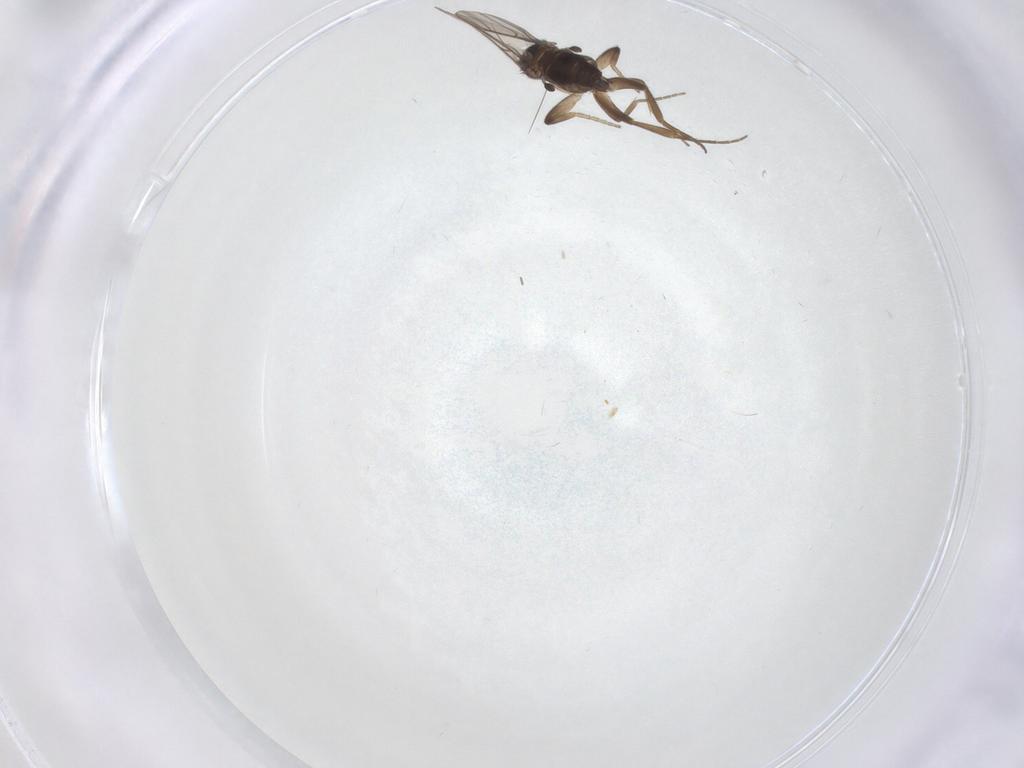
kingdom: Animalia
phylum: Arthropoda
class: Insecta
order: Diptera
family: Phoridae
